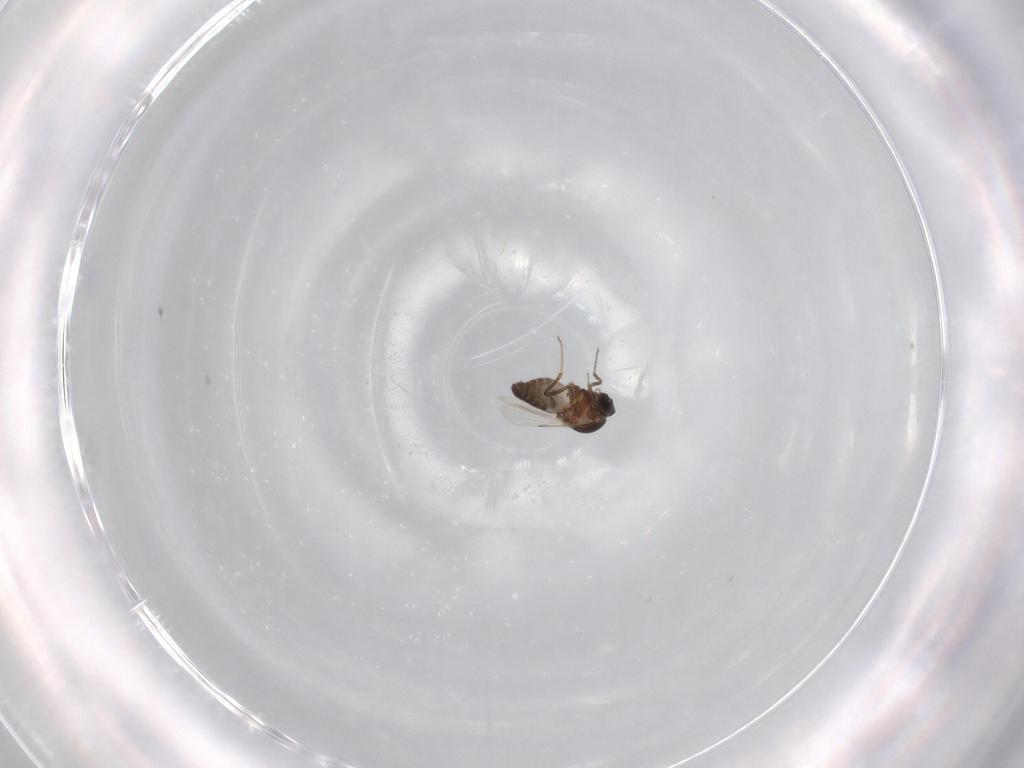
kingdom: Animalia
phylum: Arthropoda
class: Insecta
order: Diptera
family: Ceratopogonidae
